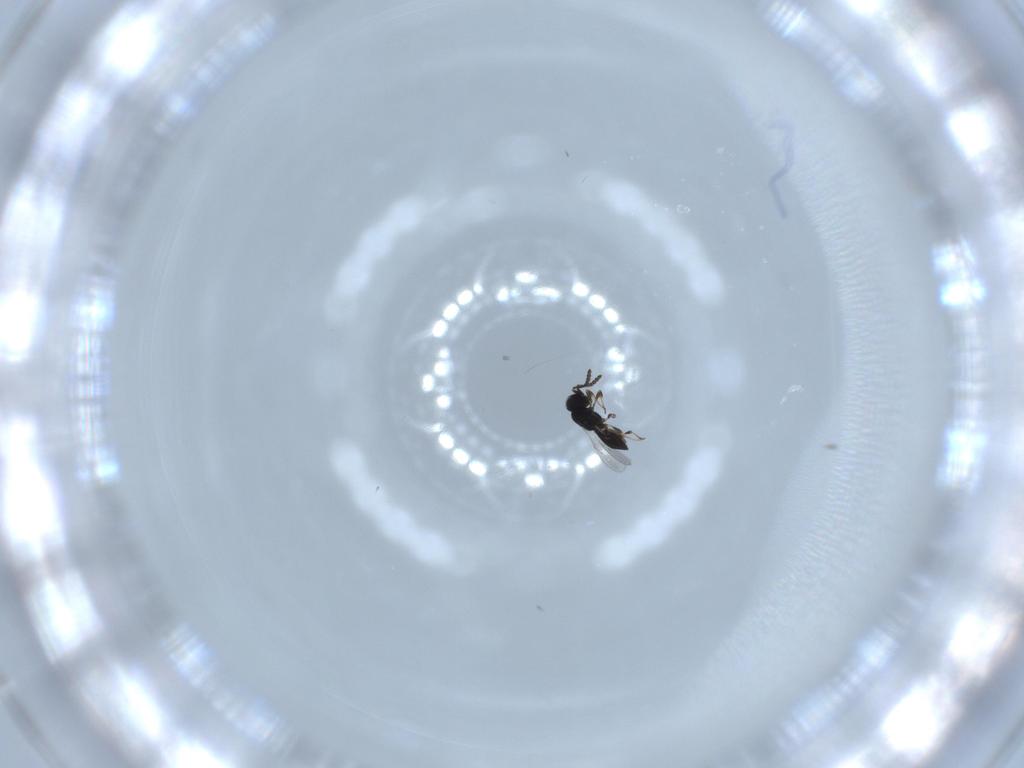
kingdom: Animalia
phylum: Arthropoda
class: Insecta
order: Hymenoptera
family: Scelionidae
